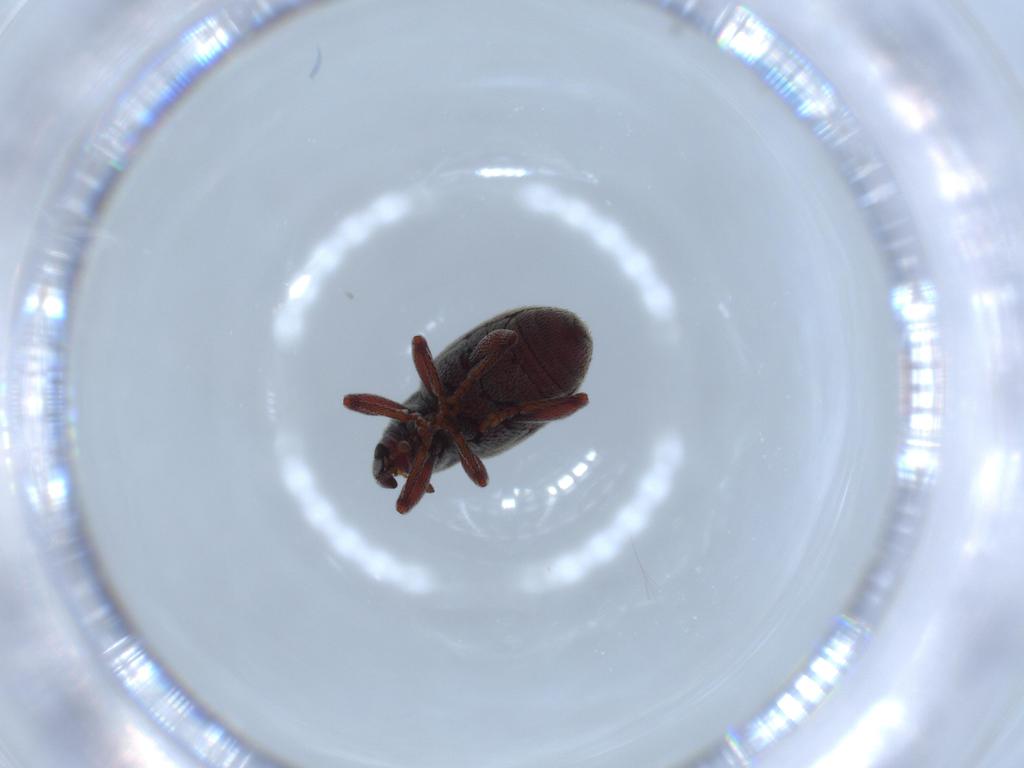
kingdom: Animalia
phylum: Arthropoda
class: Insecta
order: Coleoptera
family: Curculionidae
